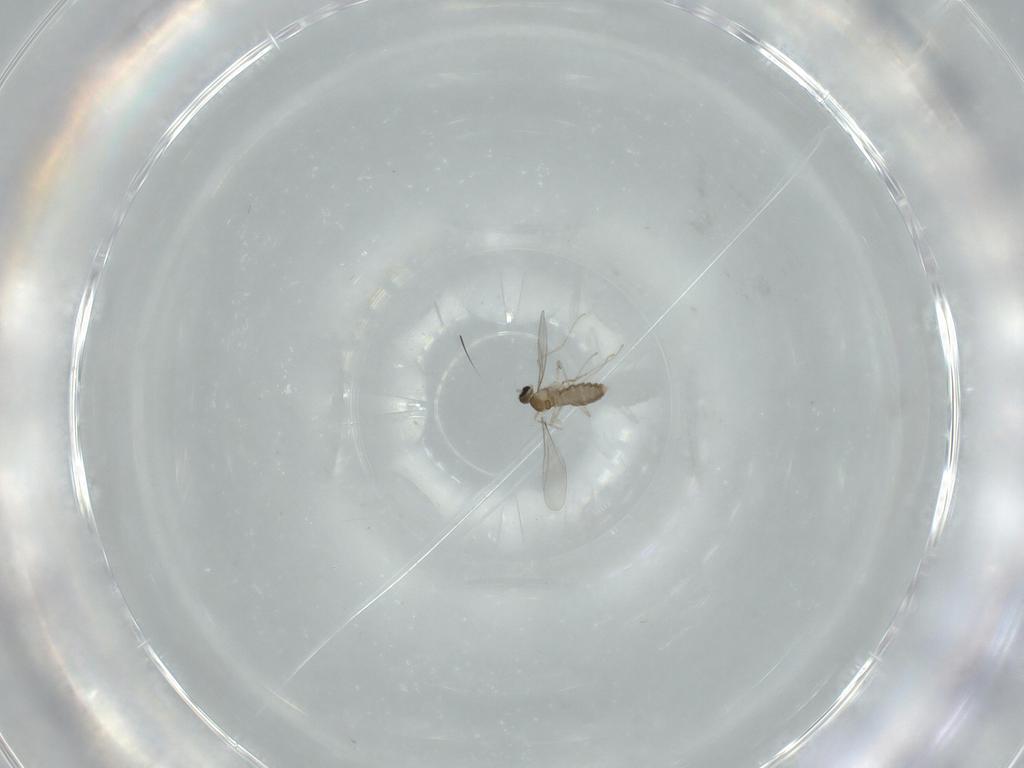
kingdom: Animalia
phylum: Arthropoda
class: Insecta
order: Diptera
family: Cecidomyiidae
